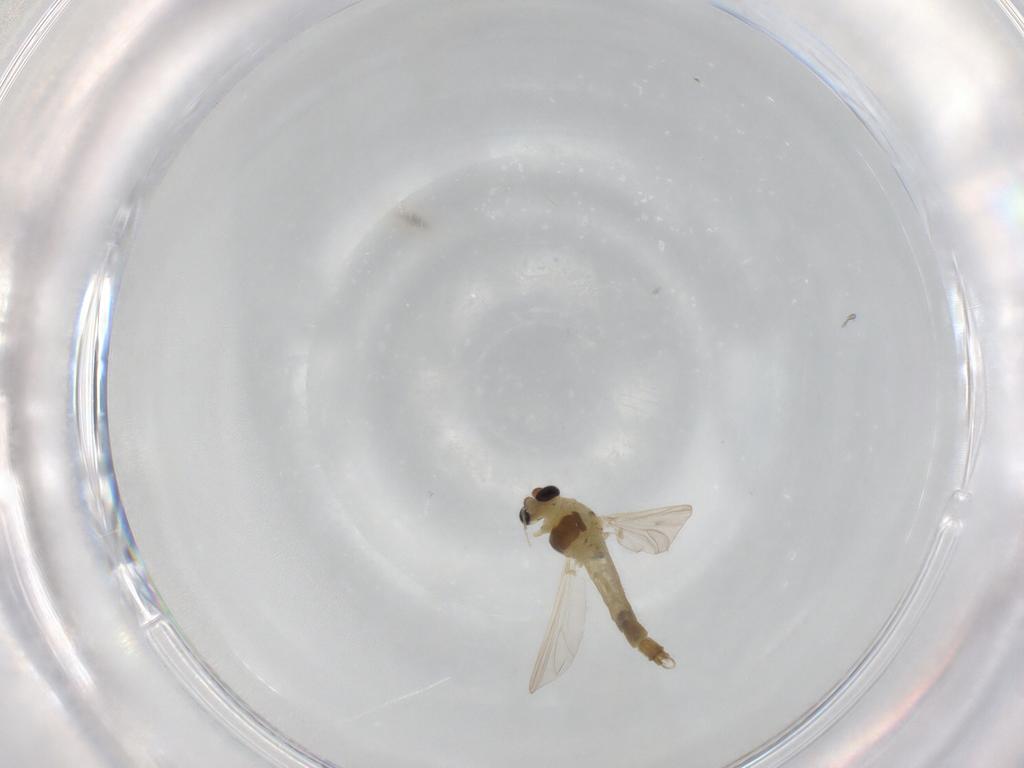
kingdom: Animalia
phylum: Arthropoda
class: Insecta
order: Diptera
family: Chironomidae
